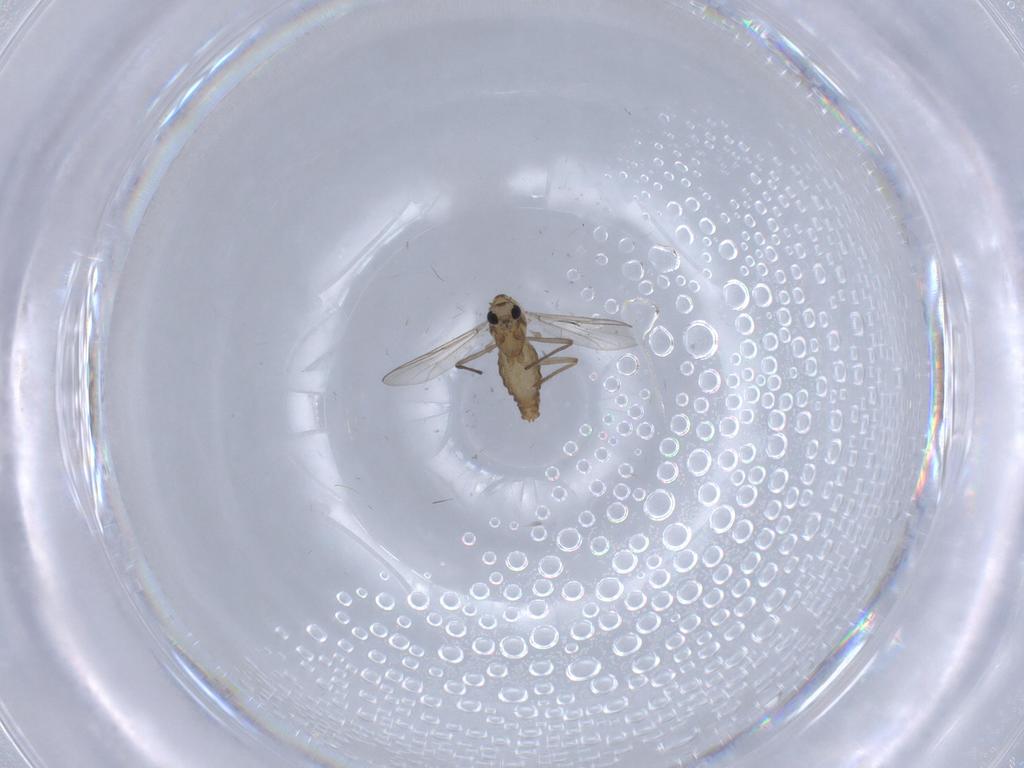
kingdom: Animalia
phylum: Arthropoda
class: Insecta
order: Diptera
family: Chironomidae
